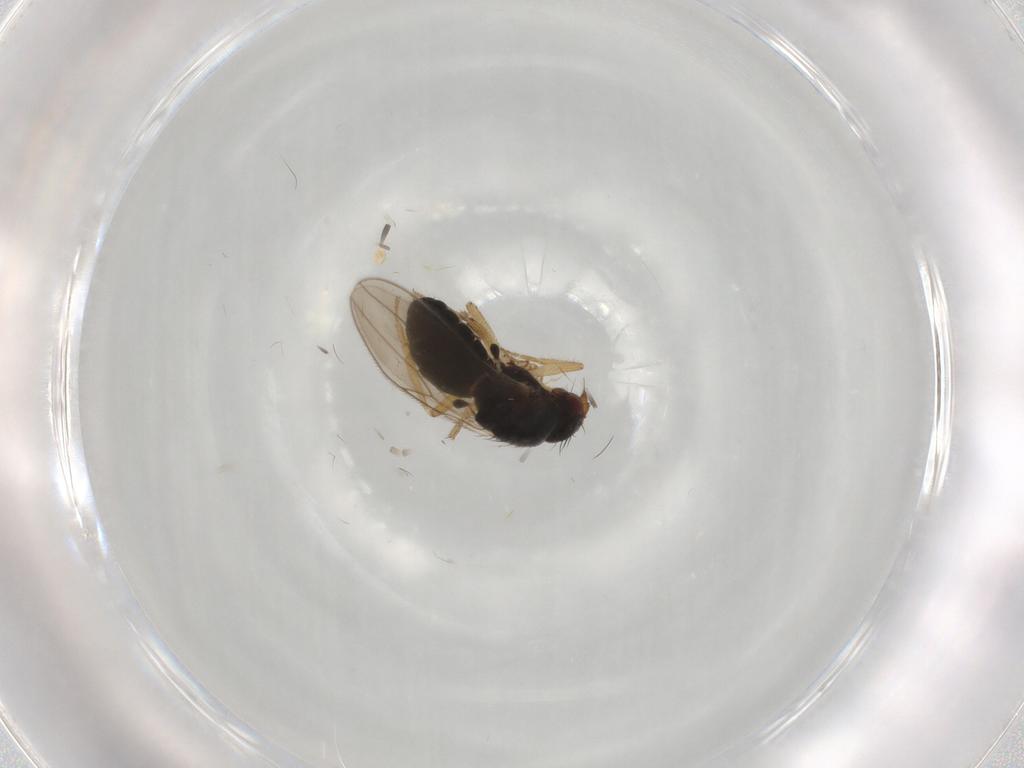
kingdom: Animalia
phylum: Arthropoda
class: Insecta
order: Diptera
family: Sphaeroceridae
